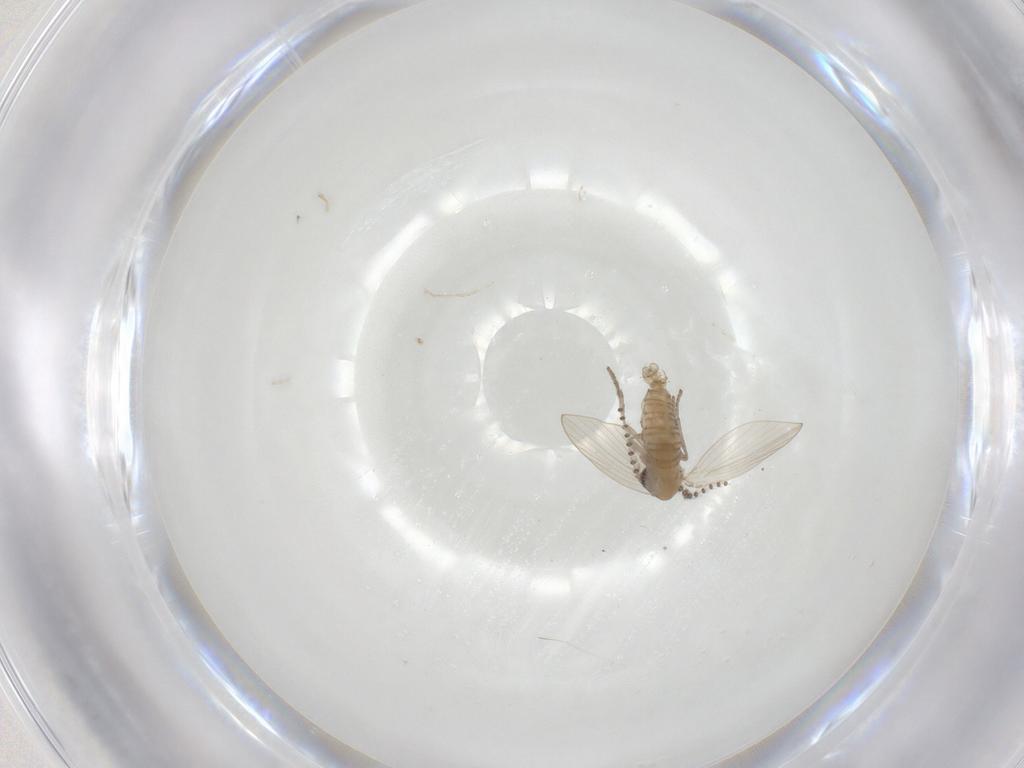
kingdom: Animalia
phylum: Arthropoda
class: Insecta
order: Diptera
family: Psychodidae
